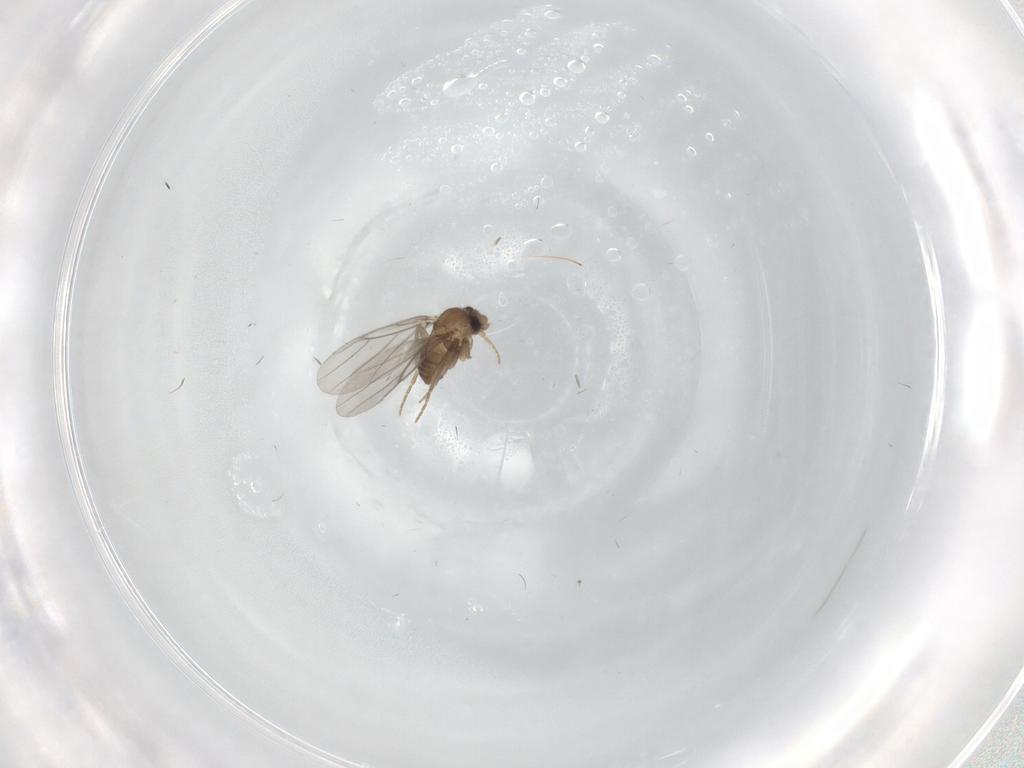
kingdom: Animalia
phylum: Arthropoda
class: Insecta
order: Diptera
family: Chironomidae
